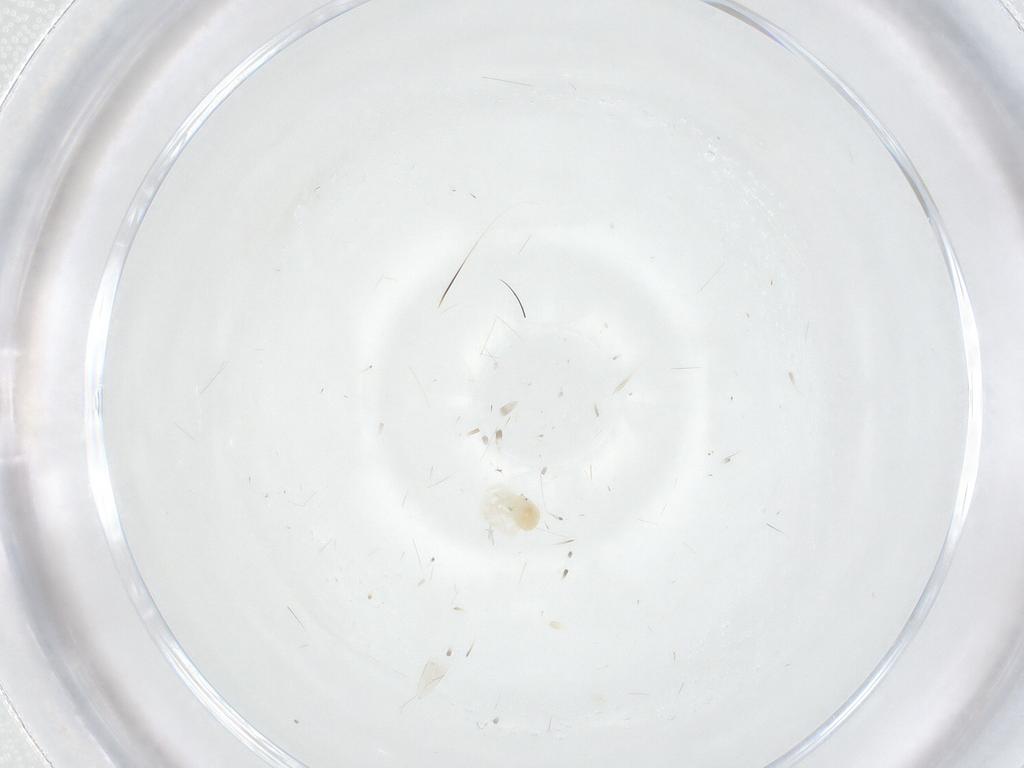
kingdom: Animalia
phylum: Arthropoda
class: Arachnida
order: Trombidiformes
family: Anystidae
